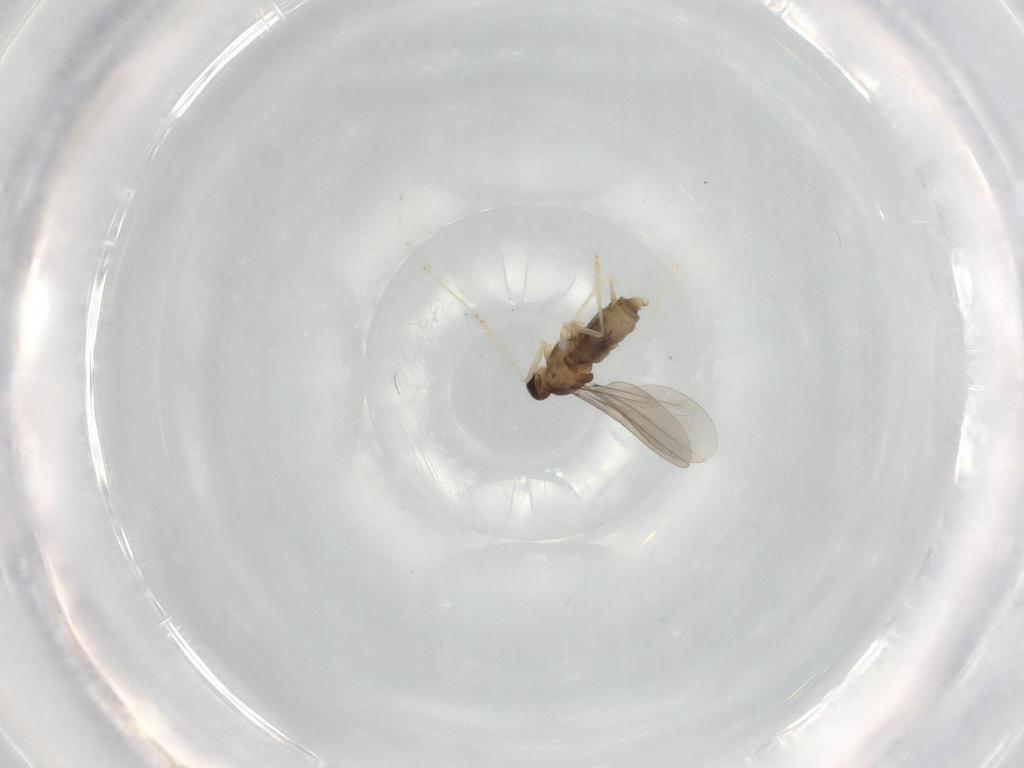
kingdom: Animalia
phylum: Arthropoda
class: Insecta
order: Diptera
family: Cecidomyiidae
